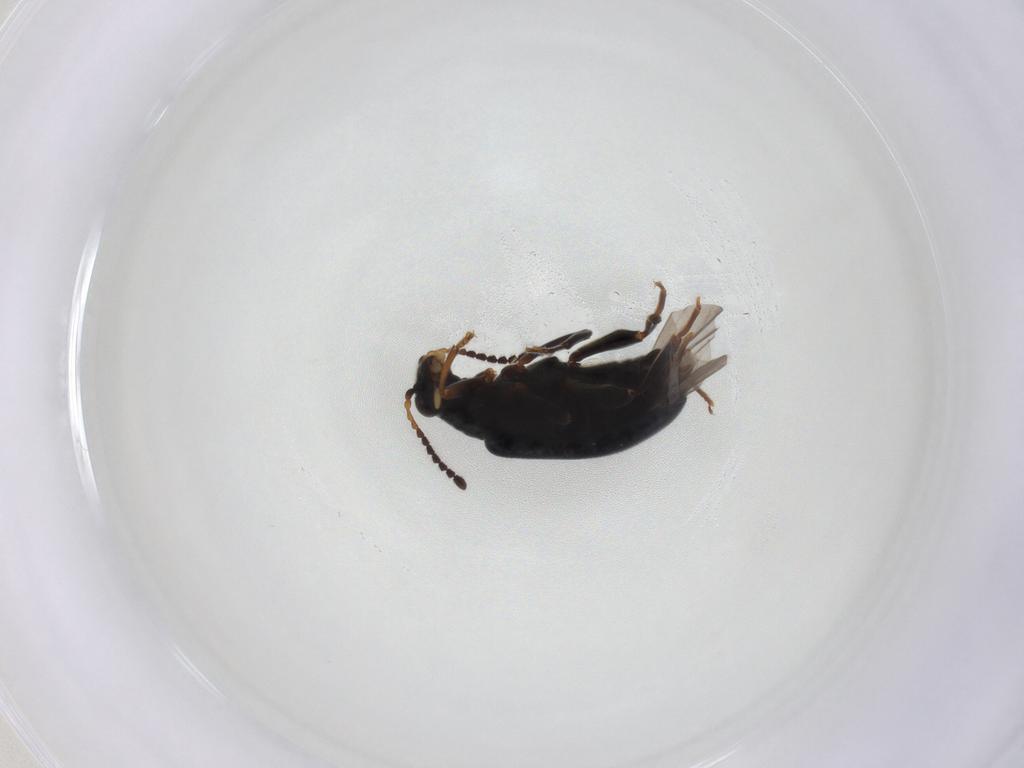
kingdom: Animalia
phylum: Arthropoda
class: Insecta
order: Coleoptera
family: Aderidae
